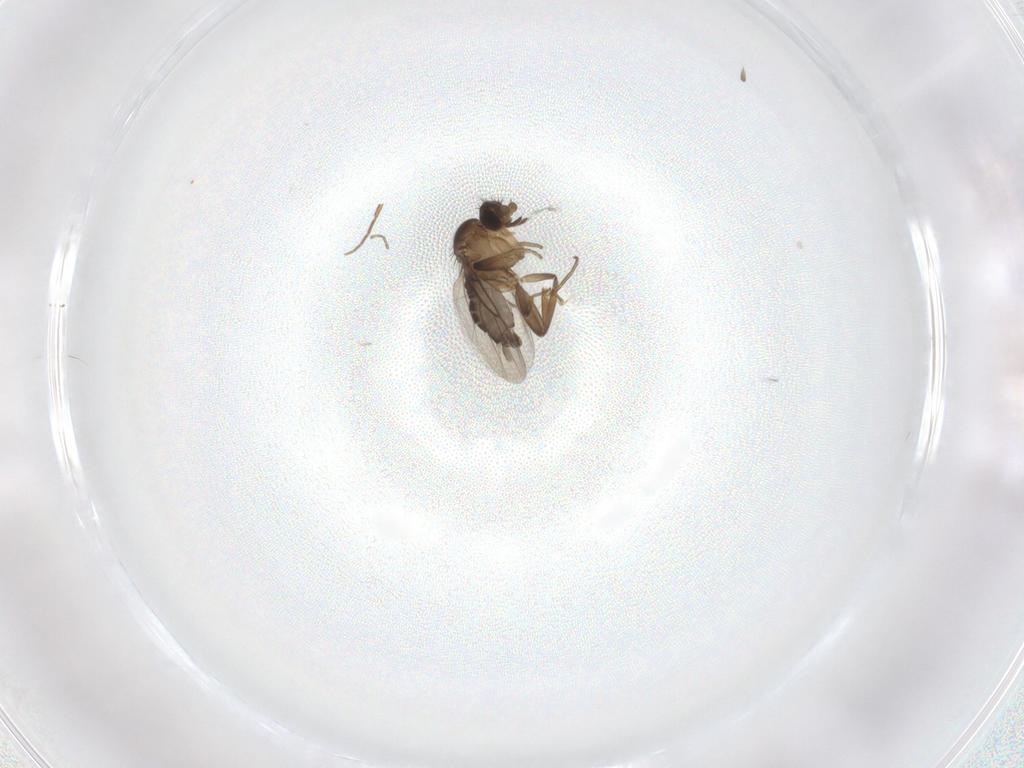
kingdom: Animalia
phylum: Arthropoda
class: Insecta
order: Diptera
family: Phoridae
